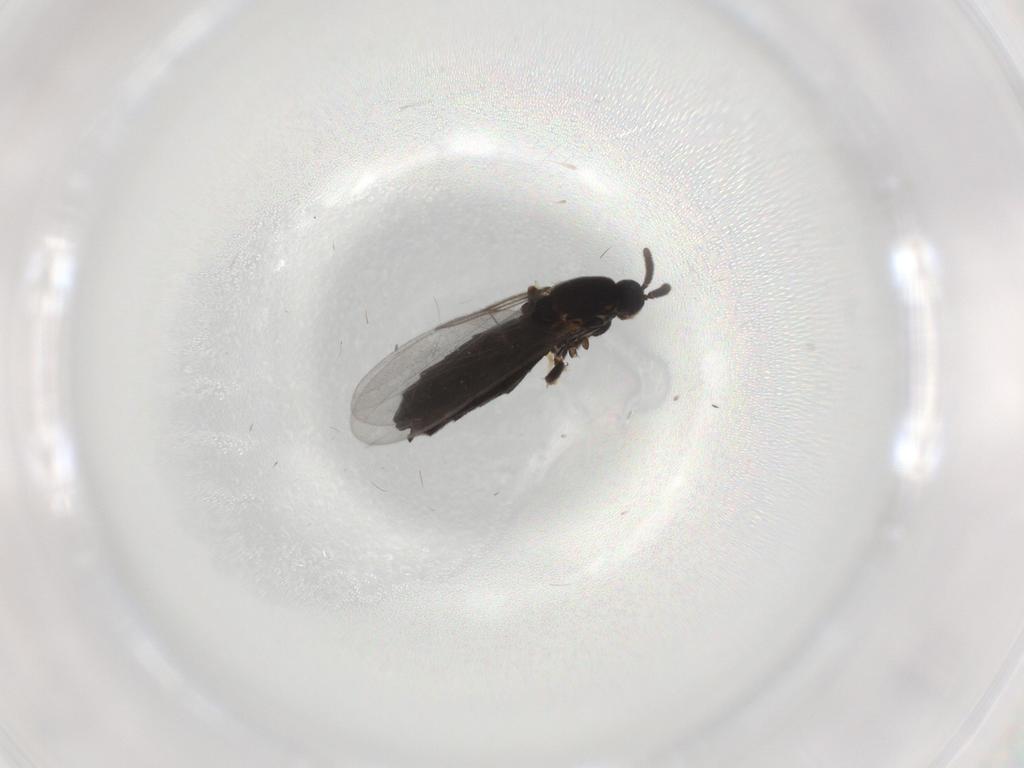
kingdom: Animalia
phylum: Arthropoda
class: Insecta
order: Diptera
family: Scatopsidae
